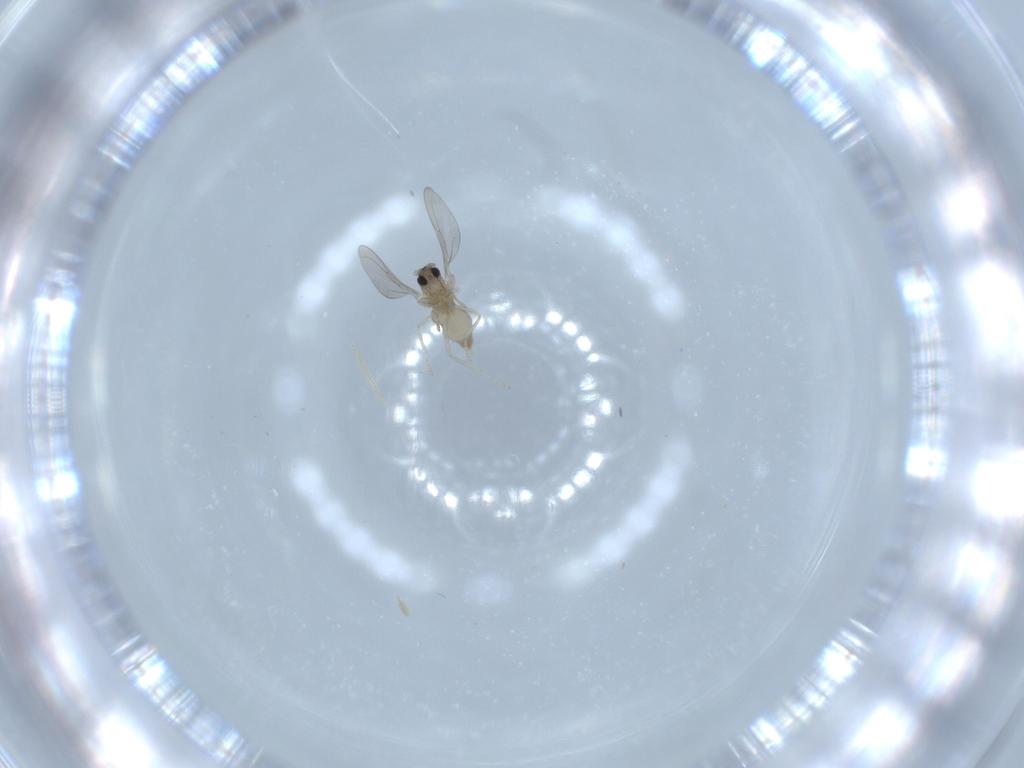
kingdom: Animalia
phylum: Arthropoda
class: Insecta
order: Diptera
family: Cecidomyiidae
